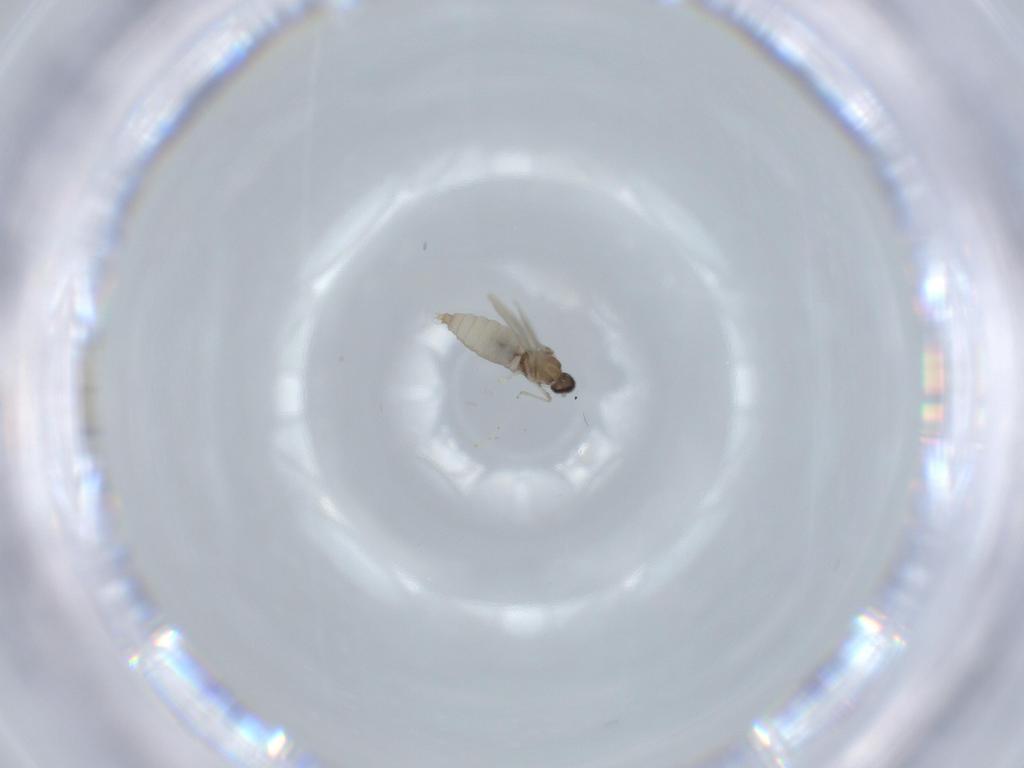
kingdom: Animalia
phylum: Arthropoda
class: Insecta
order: Diptera
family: Cecidomyiidae
